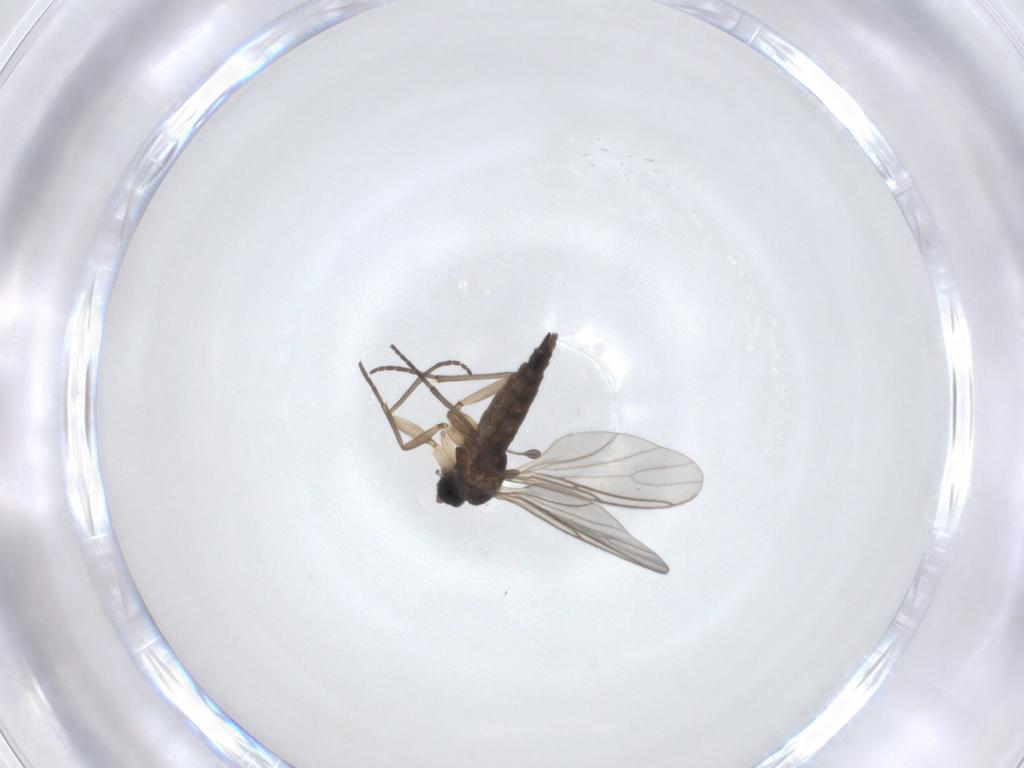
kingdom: Animalia
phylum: Arthropoda
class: Insecta
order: Diptera
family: Sciaridae
